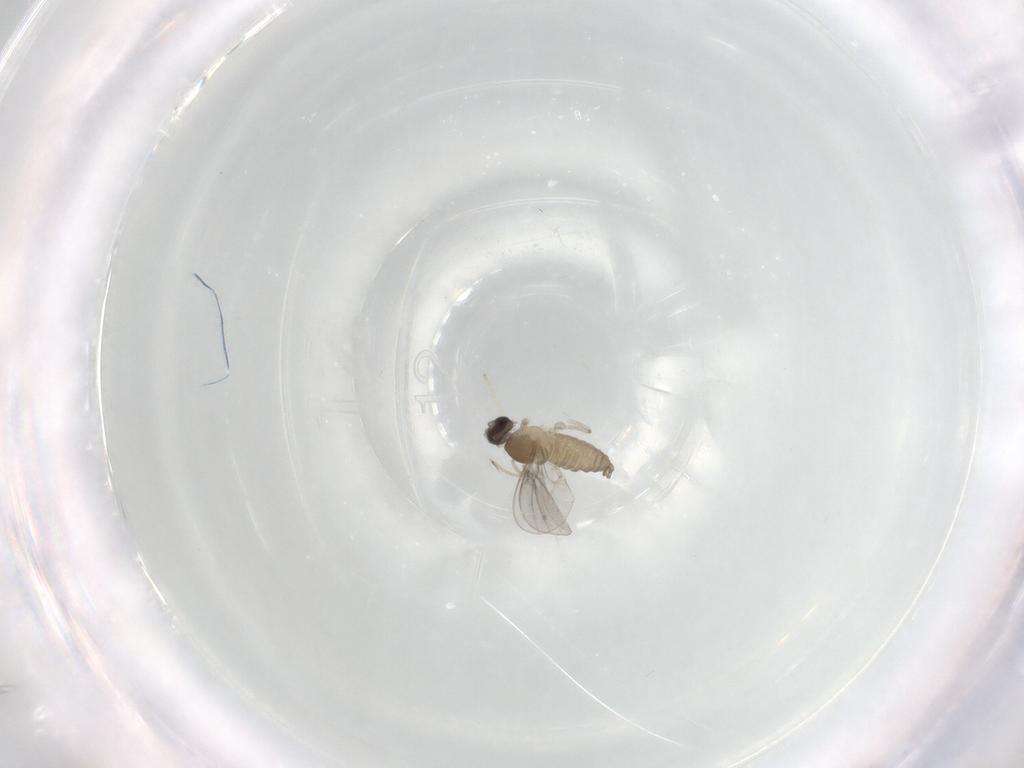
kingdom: Animalia
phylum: Arthropoda
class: Insecta
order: Diptera
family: Cecidomyiidae
